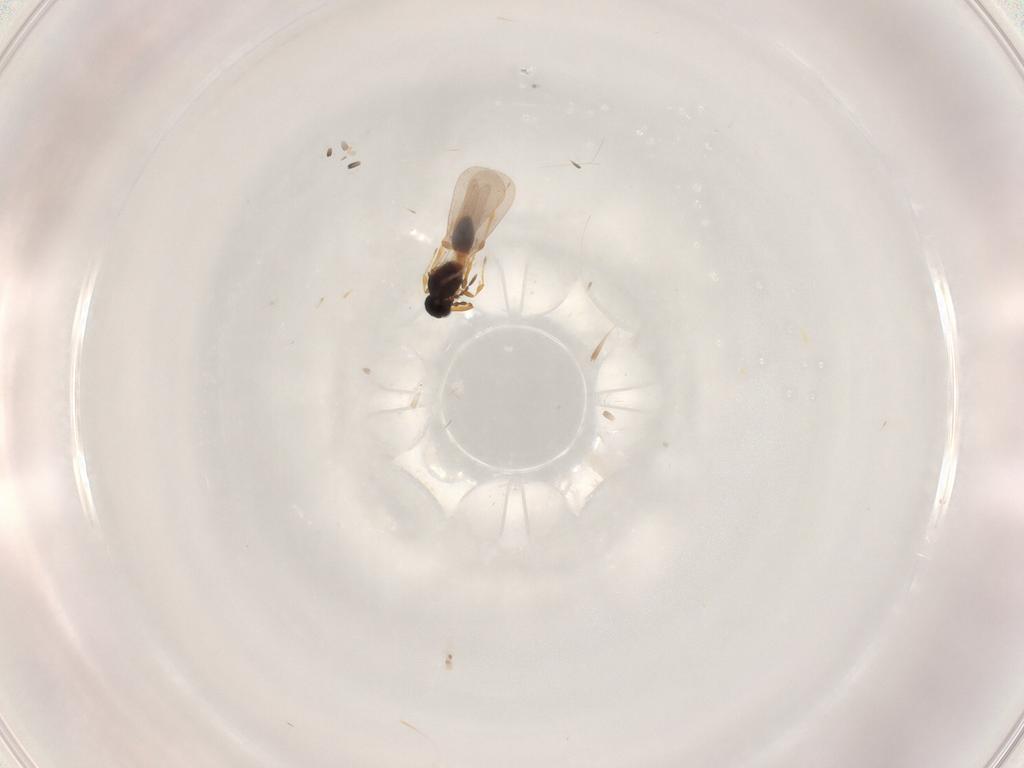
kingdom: Animalia
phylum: Arthropoda
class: Insecta
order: Hymenoptera
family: Platygastridae
